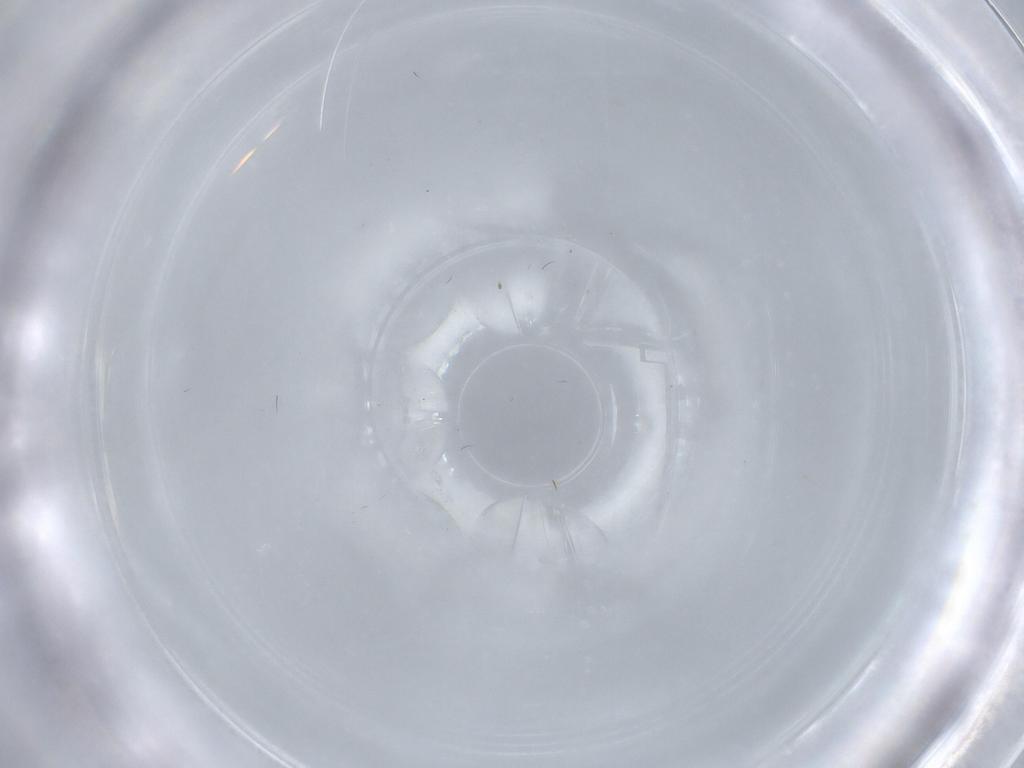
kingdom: Animalia
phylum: Arthropoda
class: Insecta
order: Hymenoptera
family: Scelionidae
